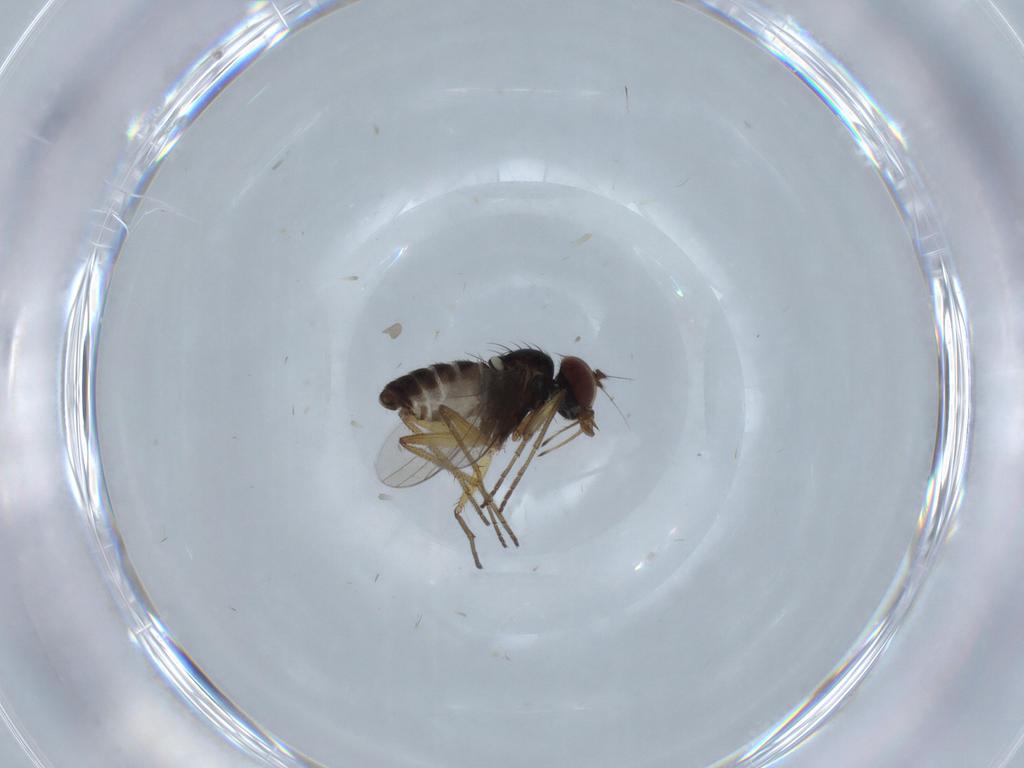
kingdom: Animalia
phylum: Arthropoda
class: Insecta
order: Diptera
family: Dolichopodidae
